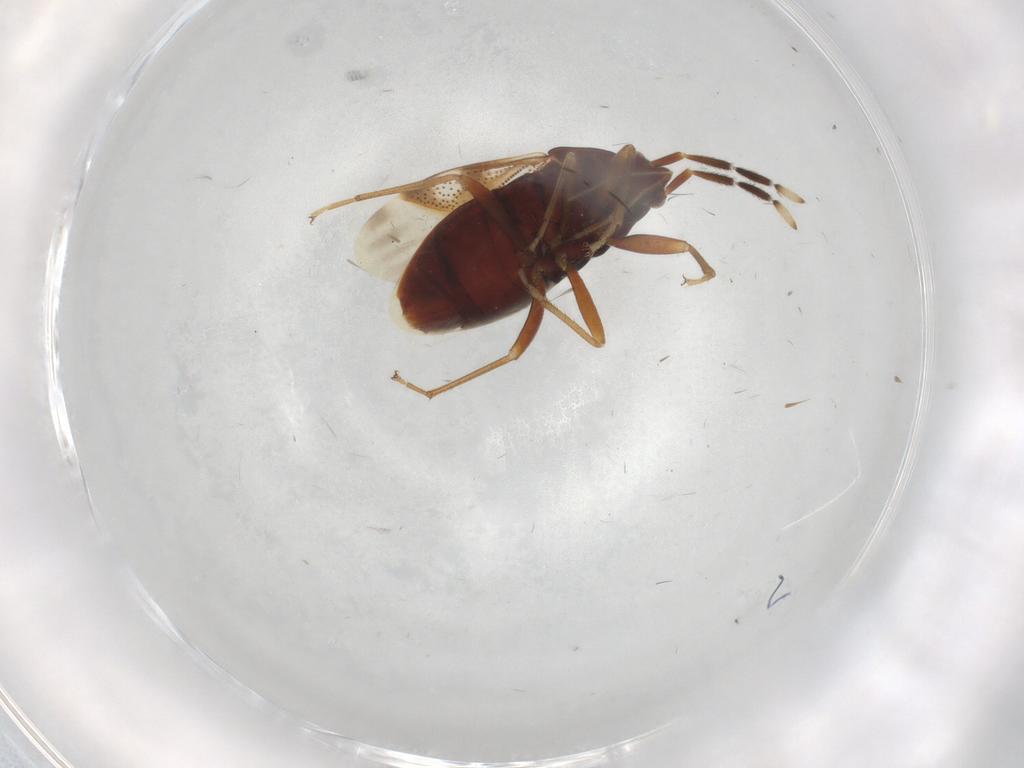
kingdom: Animalia
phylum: Arthropoda
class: Insecta
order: Hemiptera
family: Rhyparochromidae
